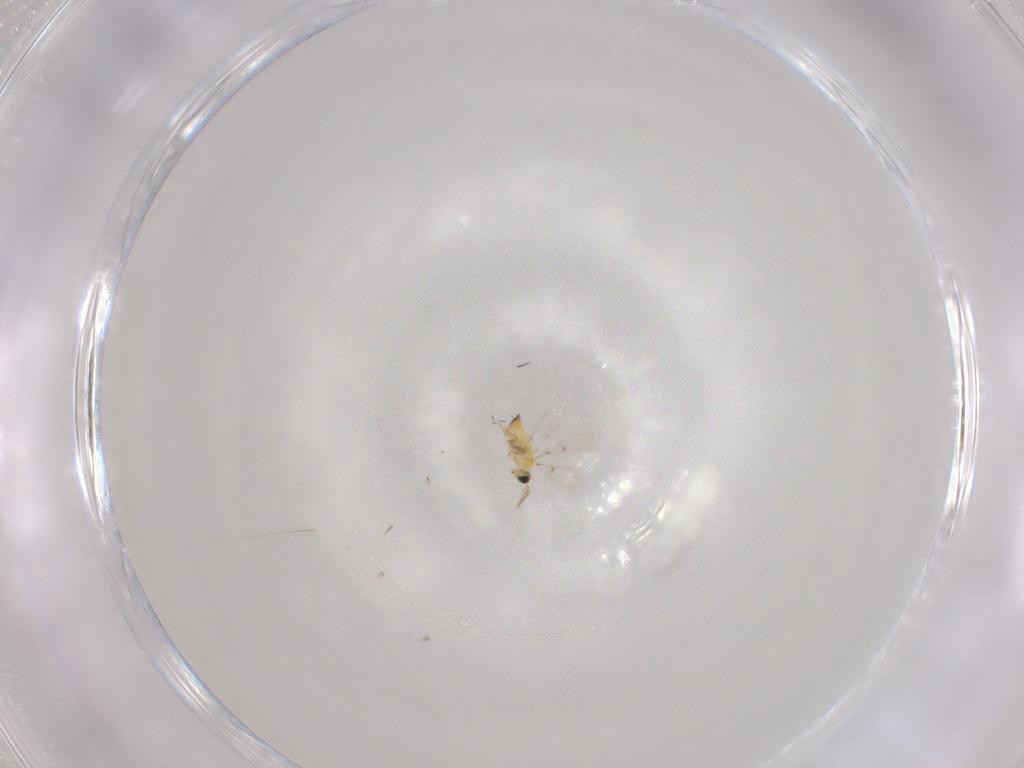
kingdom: Animalia
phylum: Arthropoda
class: Insecta
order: Hymenoptera
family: Trichogrammatidae
